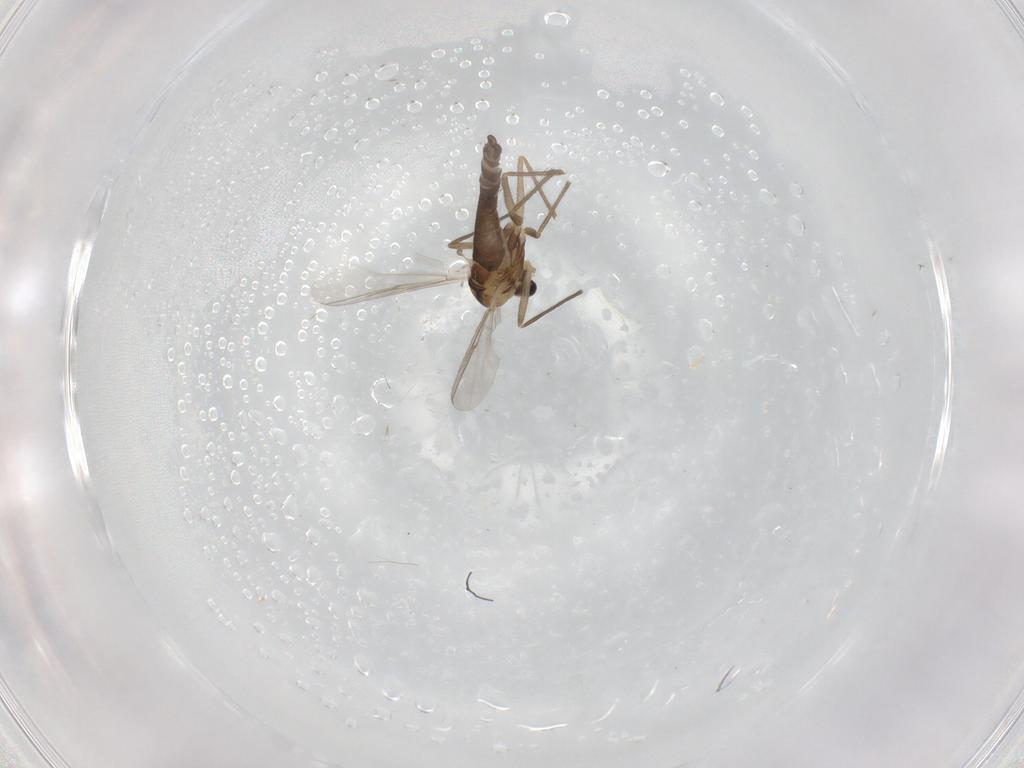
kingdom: Animalia
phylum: Arthropoda
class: Insecta
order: Diptera
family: Chironomidae
